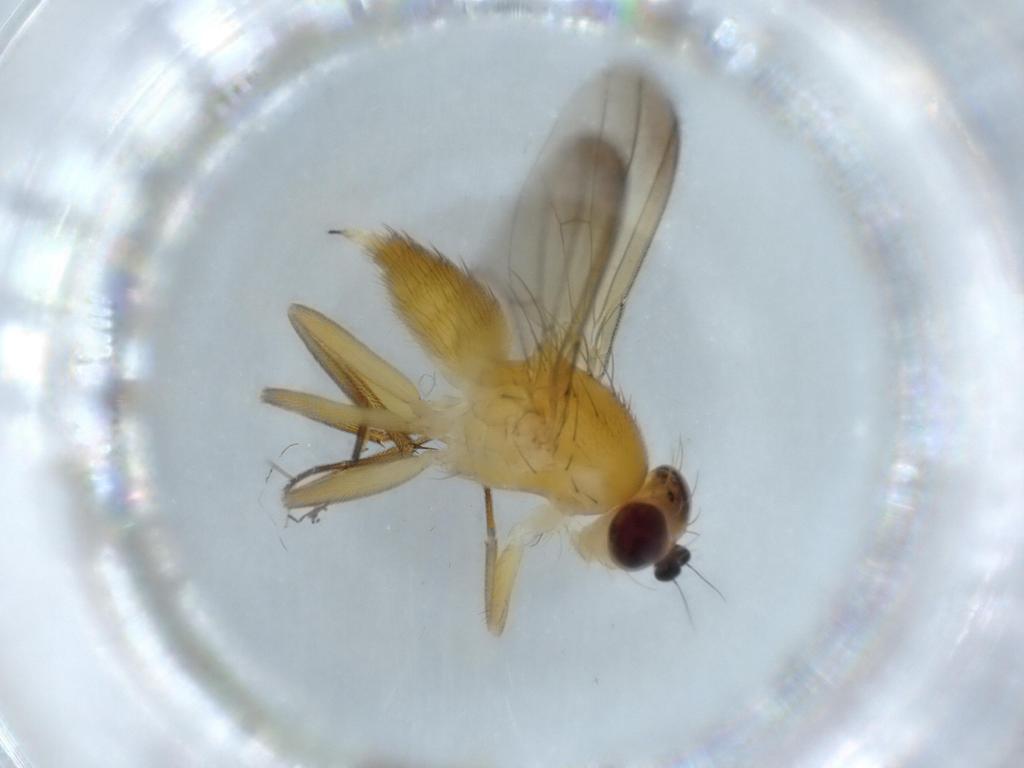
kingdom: Animalia
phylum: Arthropoda
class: Insecta
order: Diptera
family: Clusiidae
